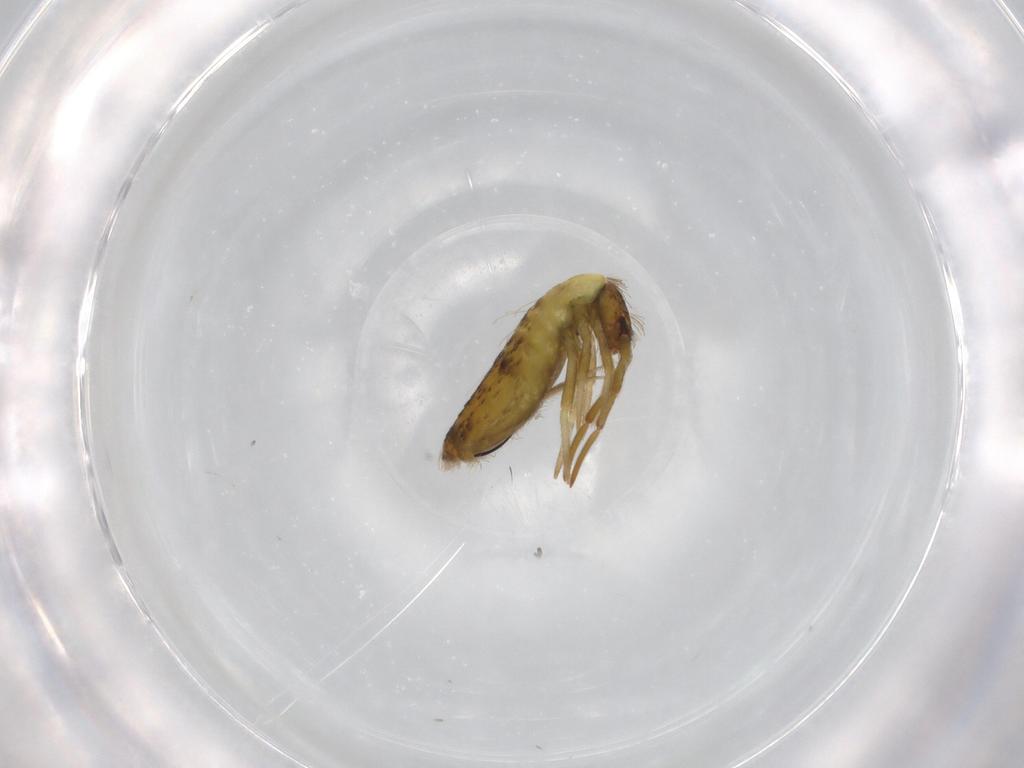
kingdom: Animalia
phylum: Arthropoda
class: Collembola
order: Entomobryomorpha
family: Entomobryidae
